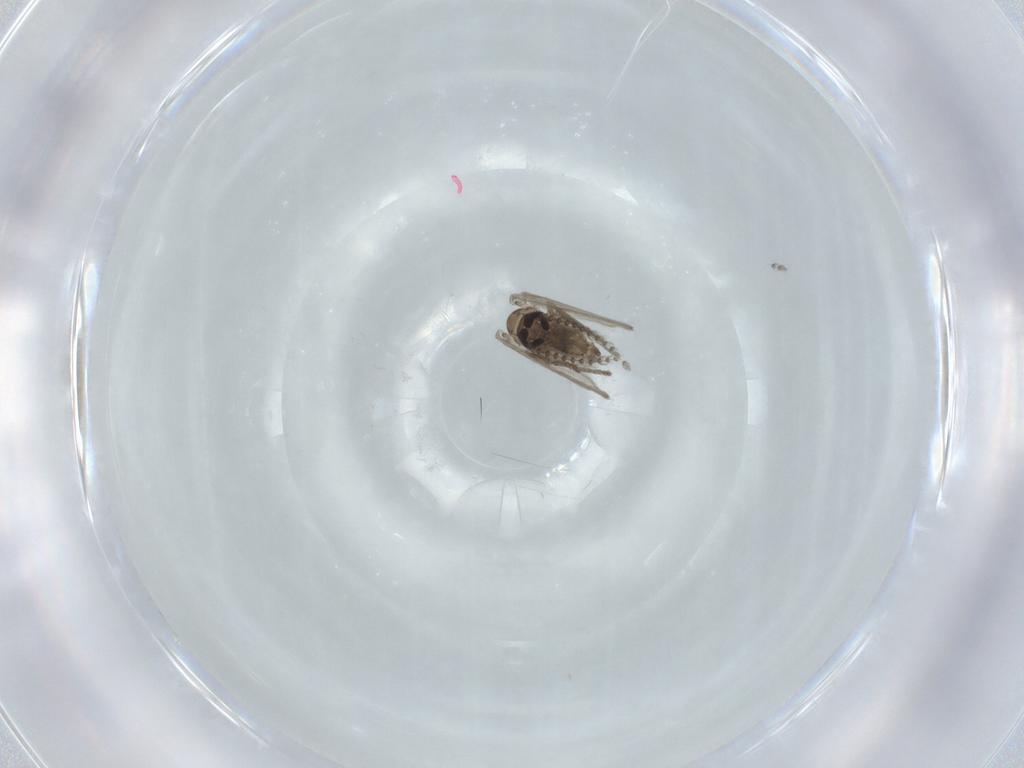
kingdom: Animalia
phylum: Arthropoda
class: Insecta
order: Diptera
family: Psychodidae
